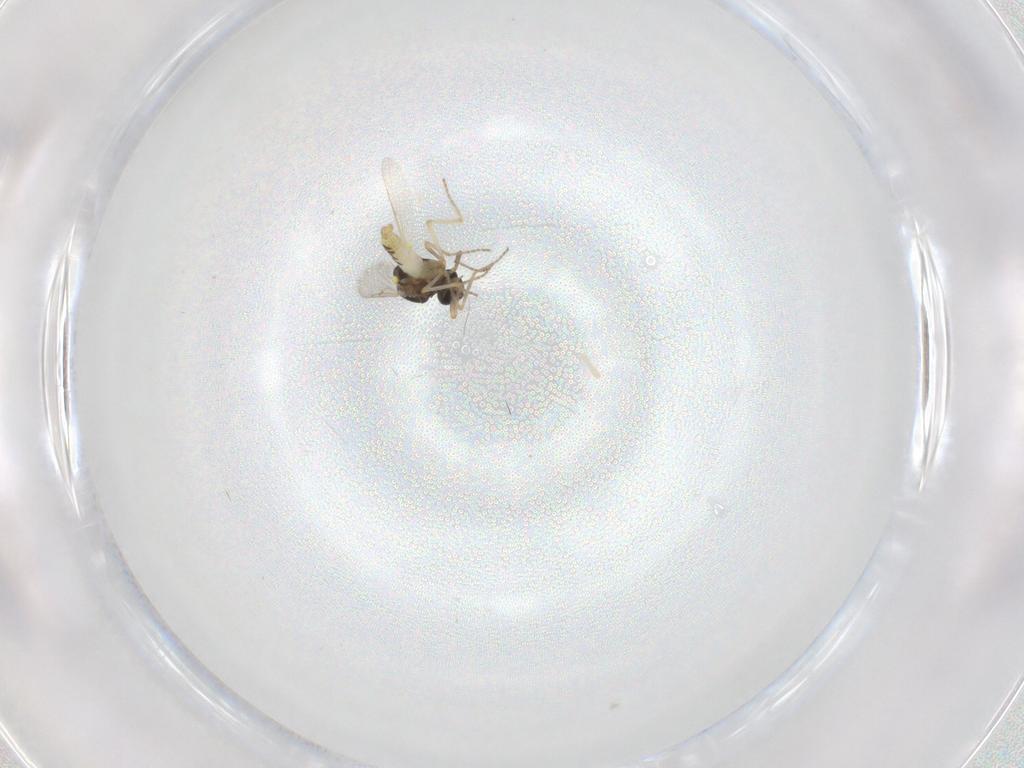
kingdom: Animalia
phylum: Arthropoda
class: Insecta
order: Diptera
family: Ceratopogonidae
